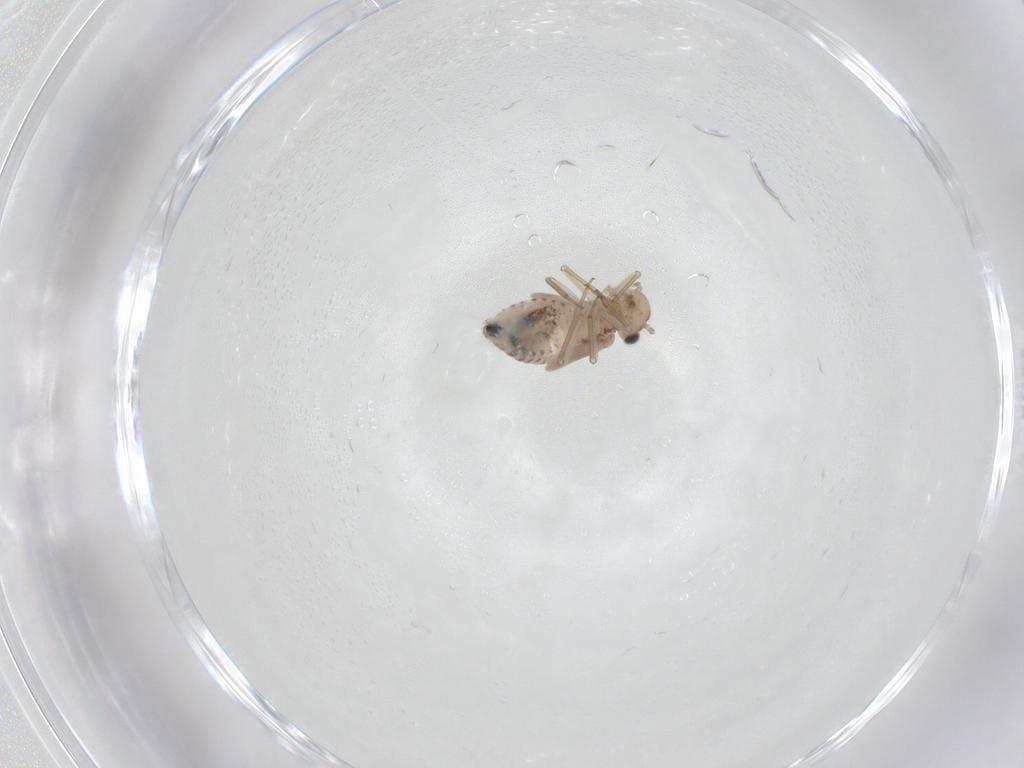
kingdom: Animalia
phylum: Arthropoda
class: Insecta
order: Psocodea
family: Lachesillidae
